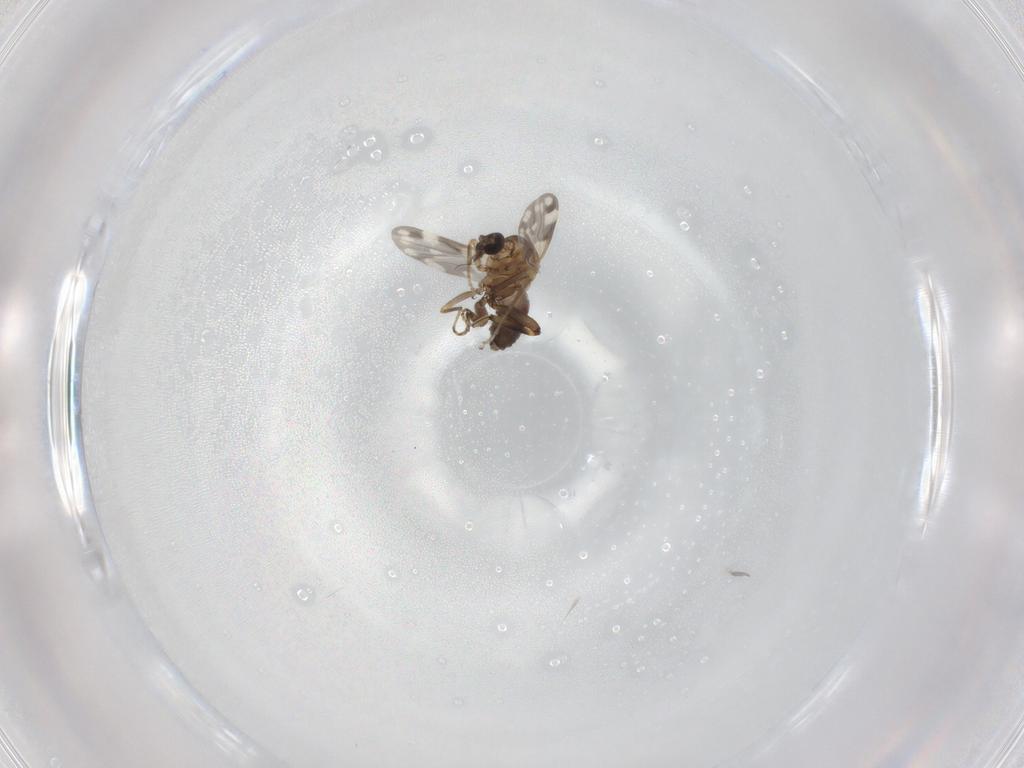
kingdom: Animalia
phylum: Arthropoda
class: Insecta
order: Diptera
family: Ceratopogonidae
